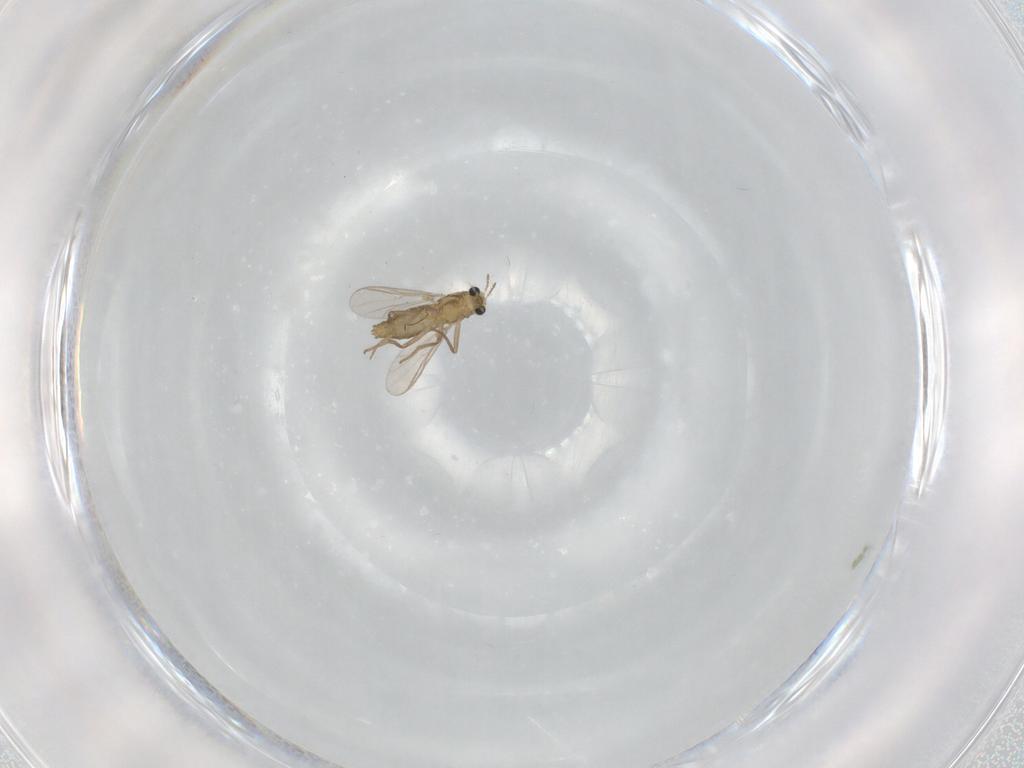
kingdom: Animalia
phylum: Arthropoda
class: Insecta
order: Diptera
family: Chironomidae
